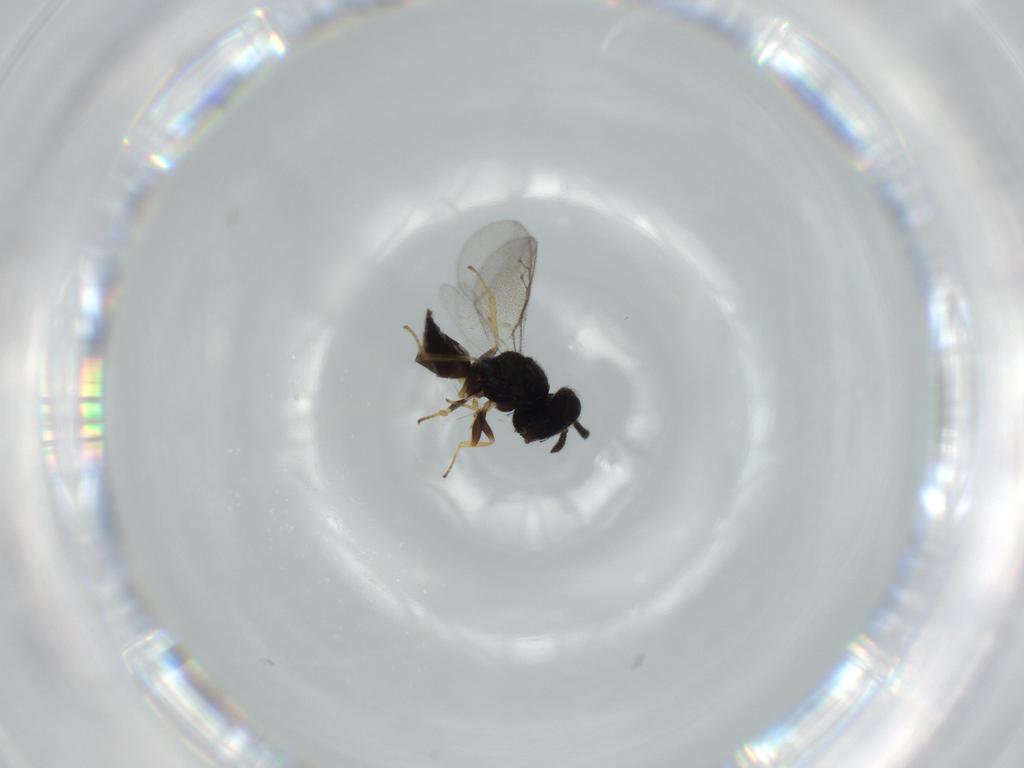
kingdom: Animalia
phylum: Arthropoda
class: Insecta
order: Hymenoptera
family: Pteromalidae
